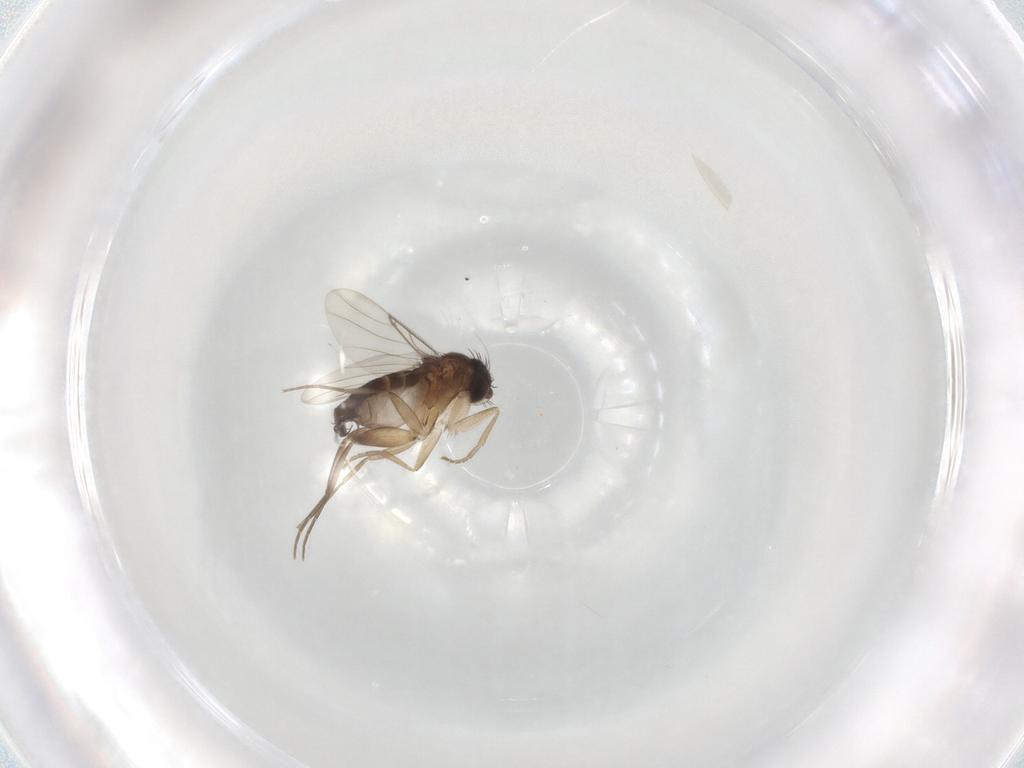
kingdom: Animalia
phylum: Arthropoda
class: Insecta
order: Diptera
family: Phoridae
